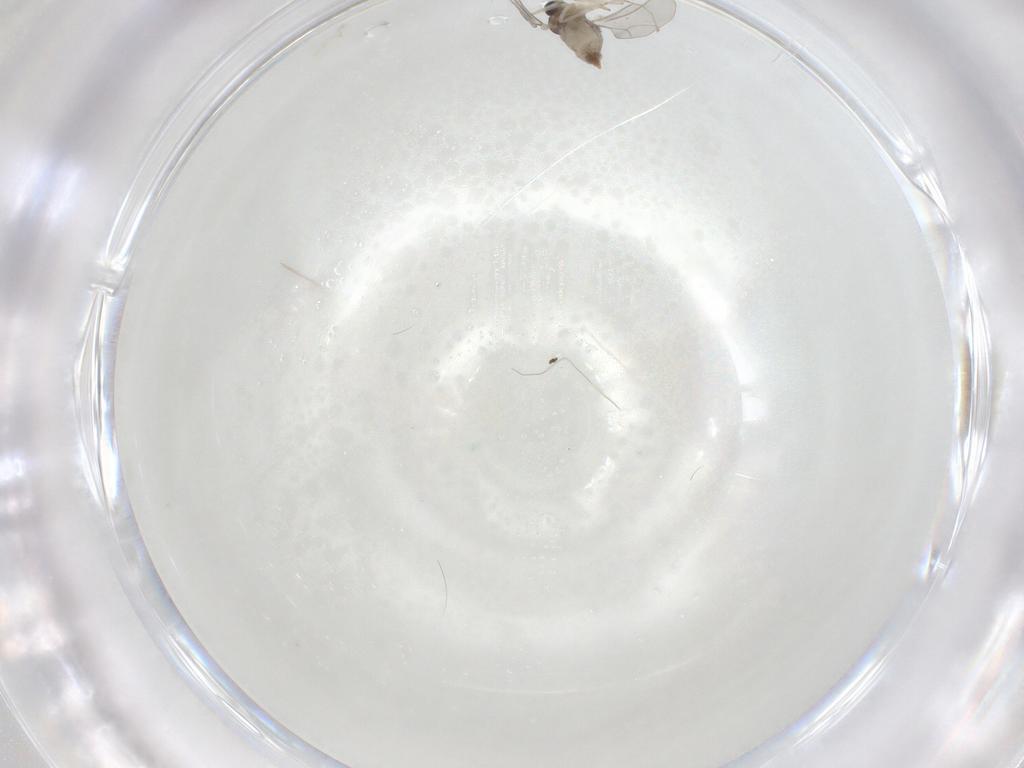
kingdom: Animalia
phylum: Arthropoda
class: Insecta
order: Diptera
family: Cecidomyiidae
